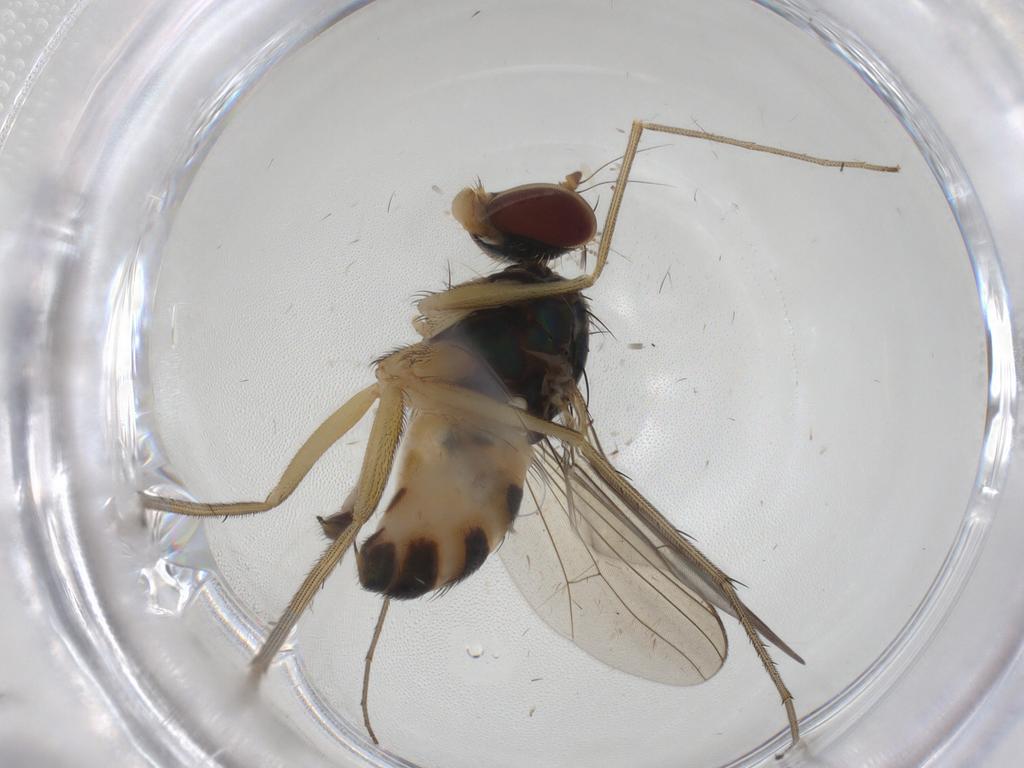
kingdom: Animalia
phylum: Arthropoda
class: Insecta
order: Diptera
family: Dolichopodidae
